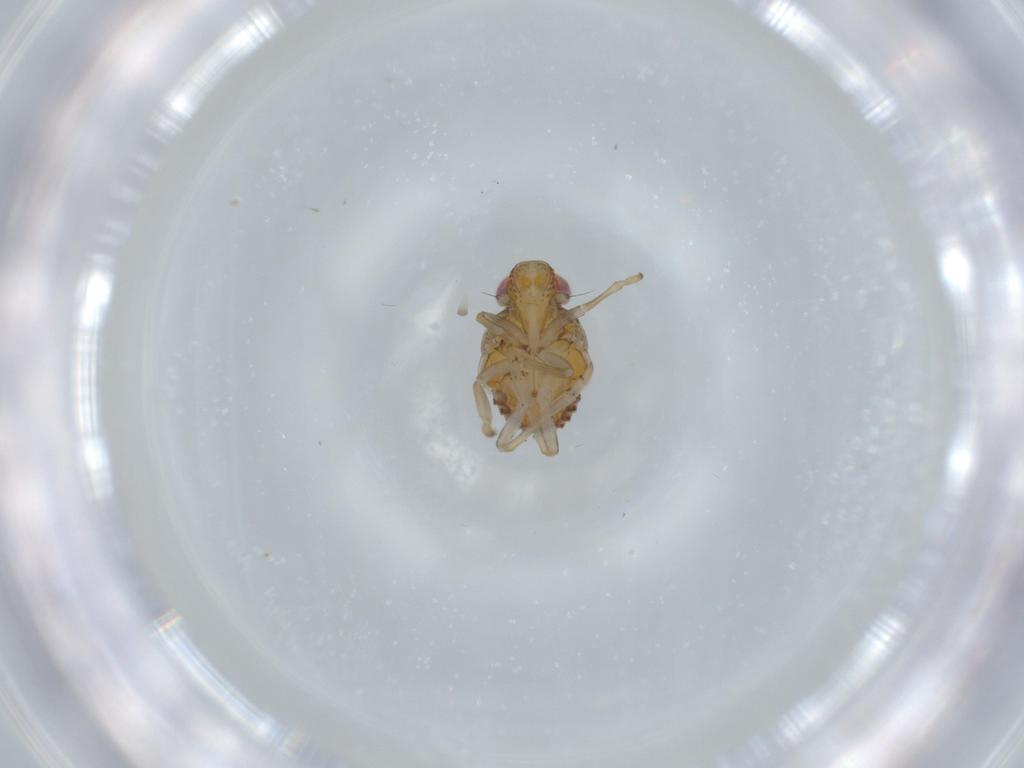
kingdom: Animalia
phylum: Arthropoda
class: Insecta
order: Hemiptera
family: Issidae
